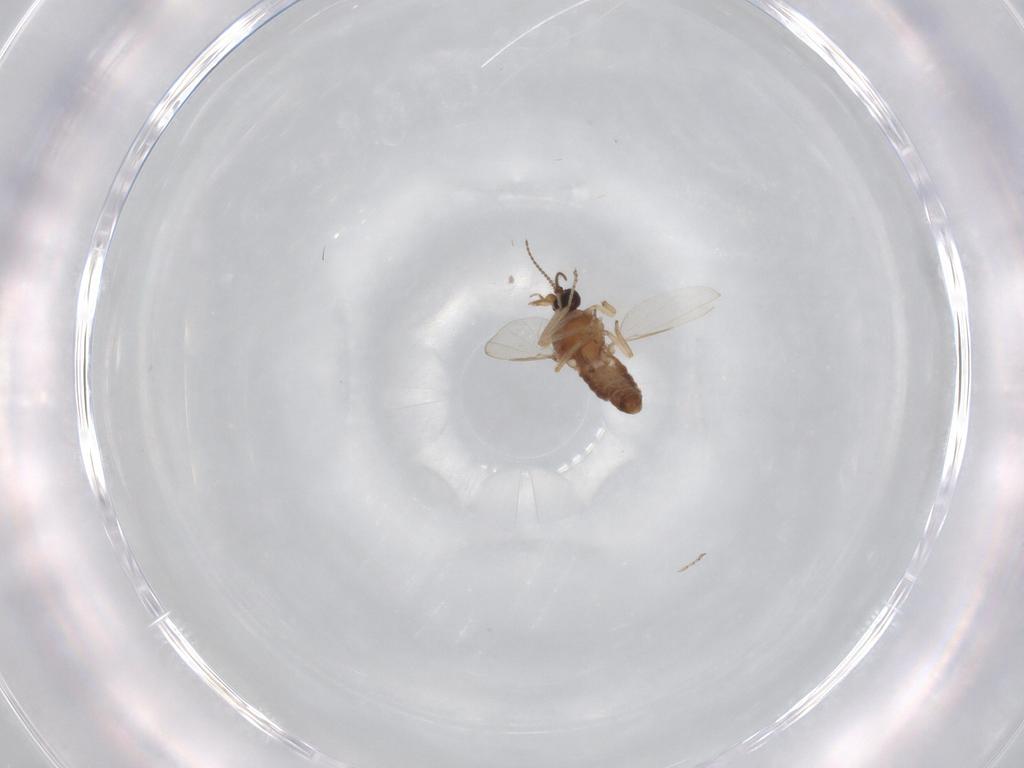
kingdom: Animalia
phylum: Arthropoda
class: Insecta
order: Diptera
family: Ceratopogonidae
